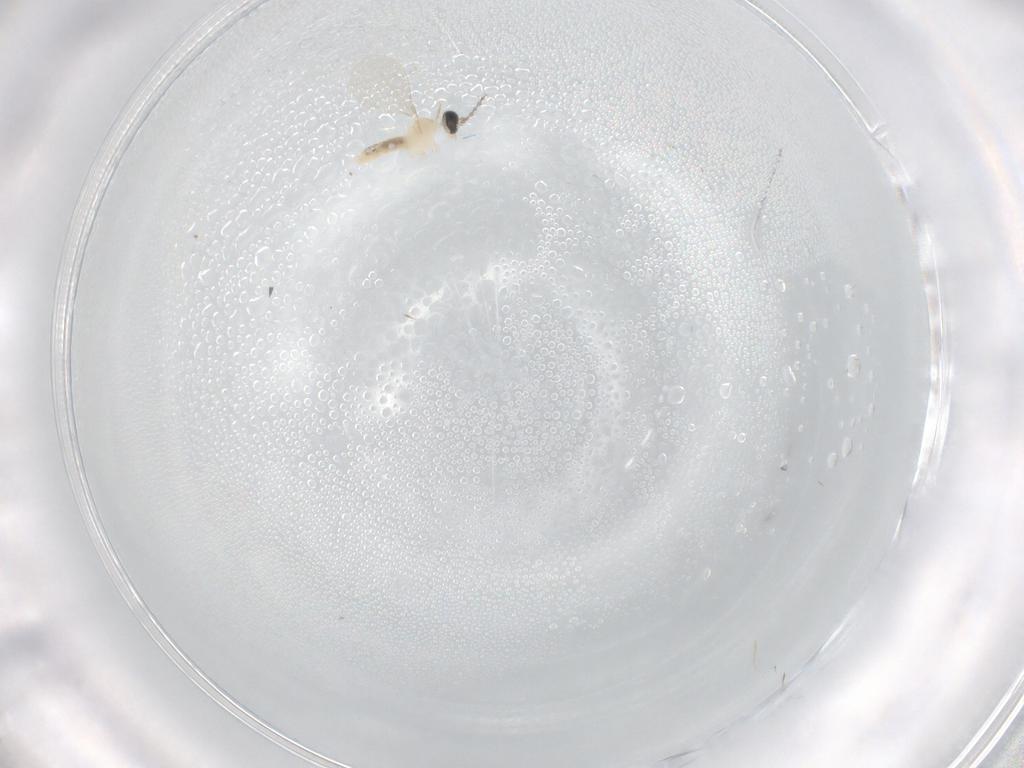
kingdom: Animalia
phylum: Arthropoda
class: Insecta
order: Diptera
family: Cecidomyiidae
